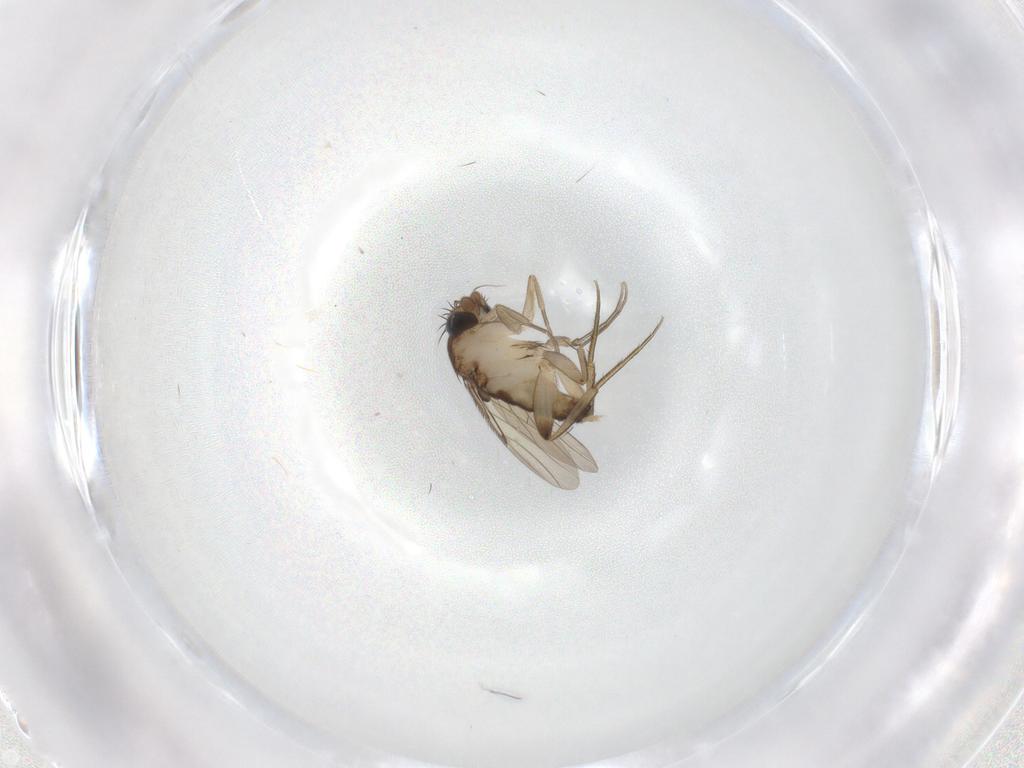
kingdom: Animalia
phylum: Arthropoda
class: Insecta
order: Diptera
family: Phoridae
